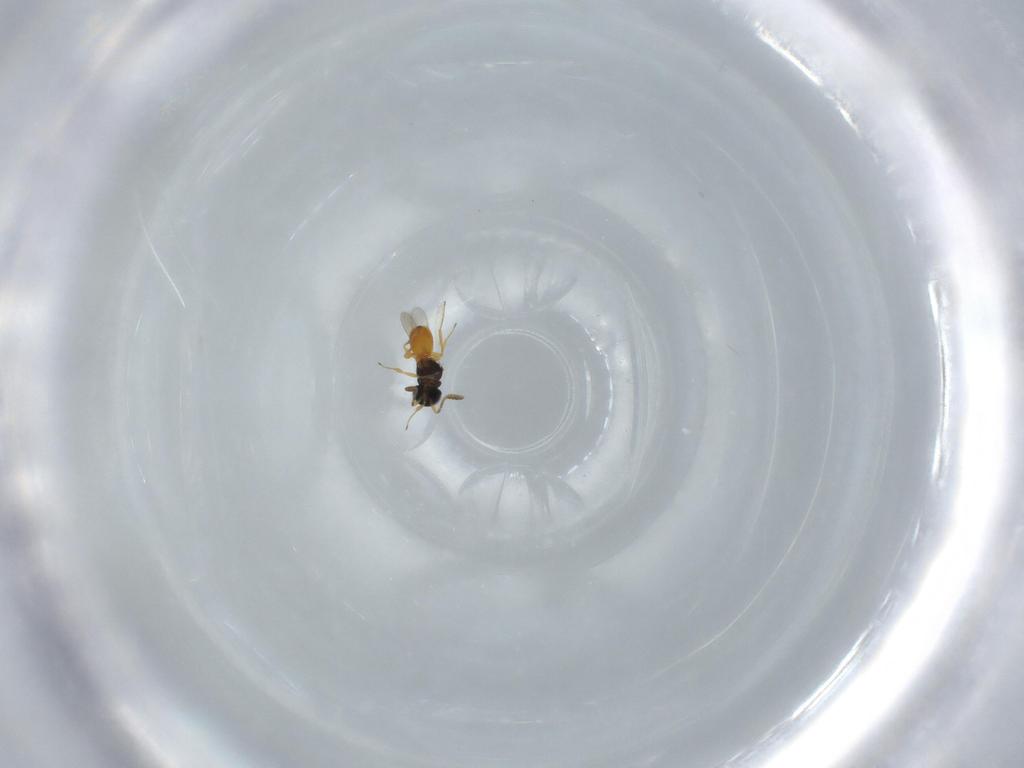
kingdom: Animalia
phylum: Arthropoda
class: Insecta
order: Hymenoptera
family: Scelionidae
